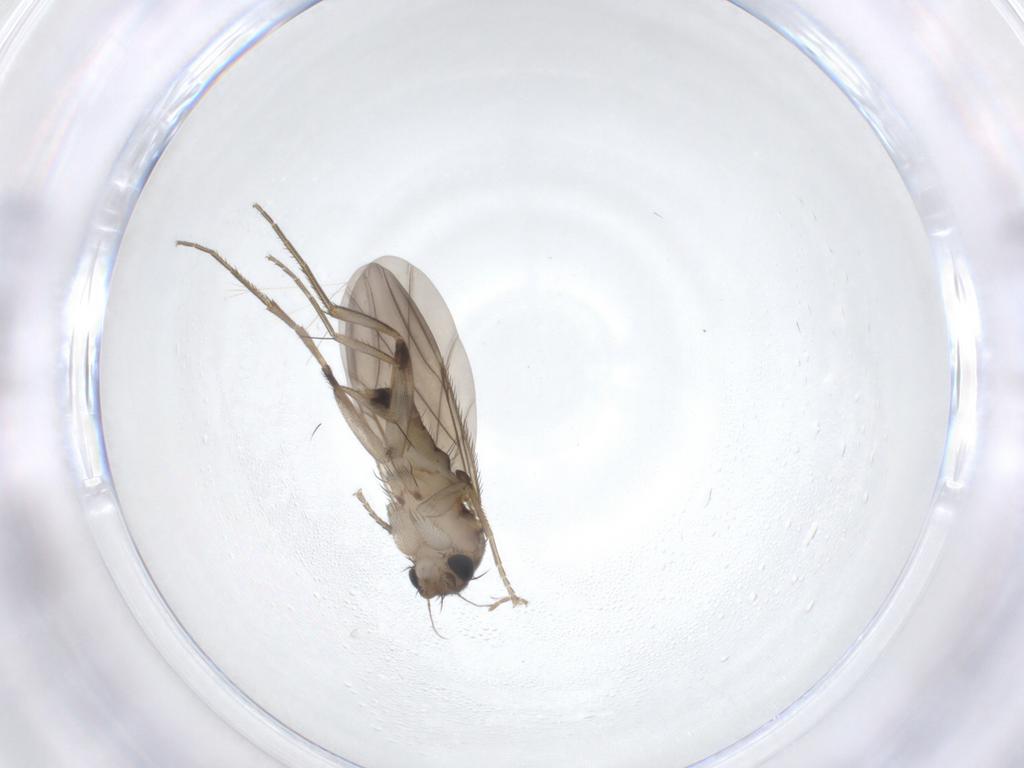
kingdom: Animalia
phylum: Arthropoda
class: Insecta
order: Diptera
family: Phoridae
